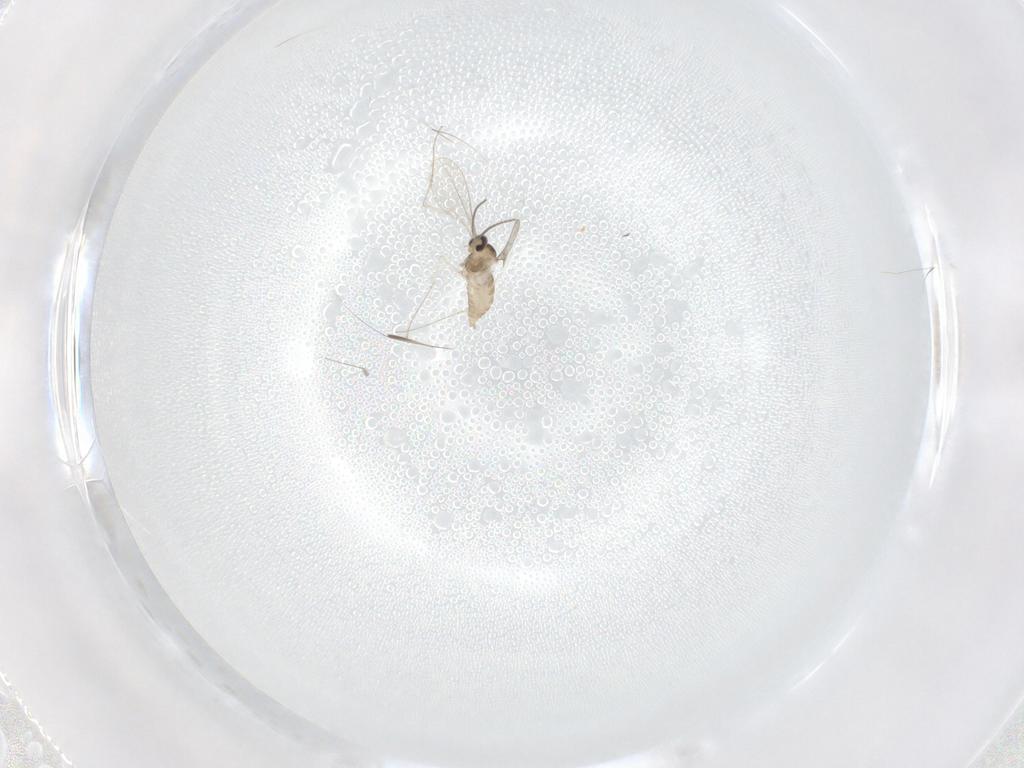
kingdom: Animalia
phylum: Arthropoda
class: Insecta
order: Diptera
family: Cecidomyiidae
